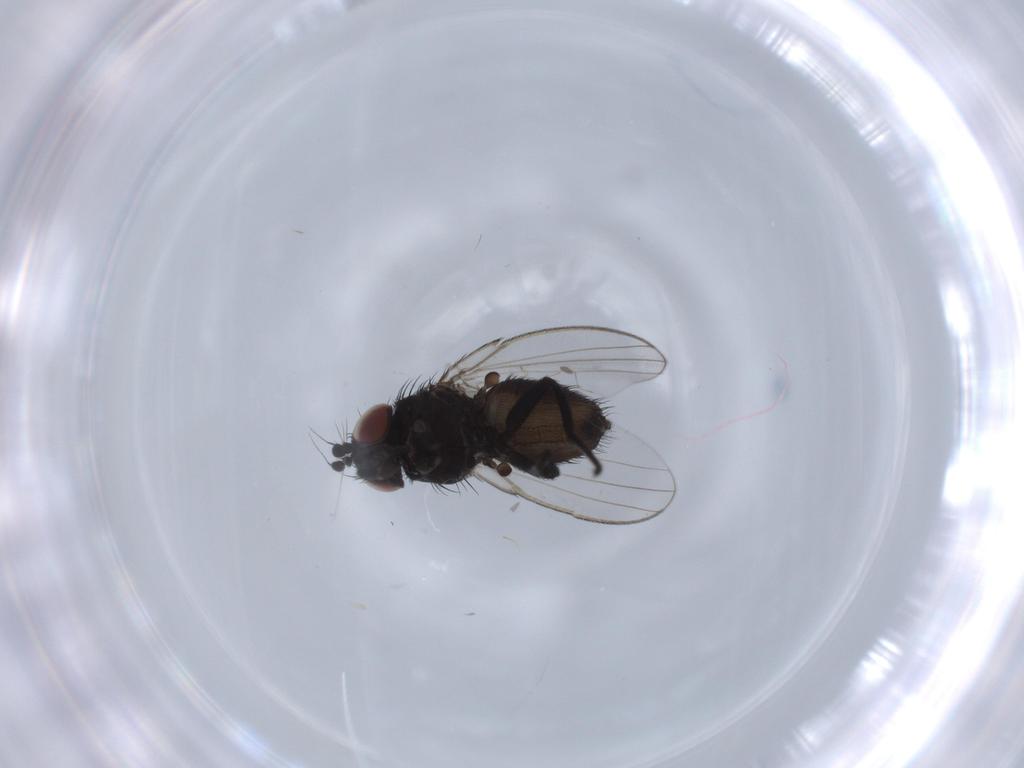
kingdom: Animalia
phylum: Arthropoda
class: Insecta
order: Diptera
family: Milichiidae
